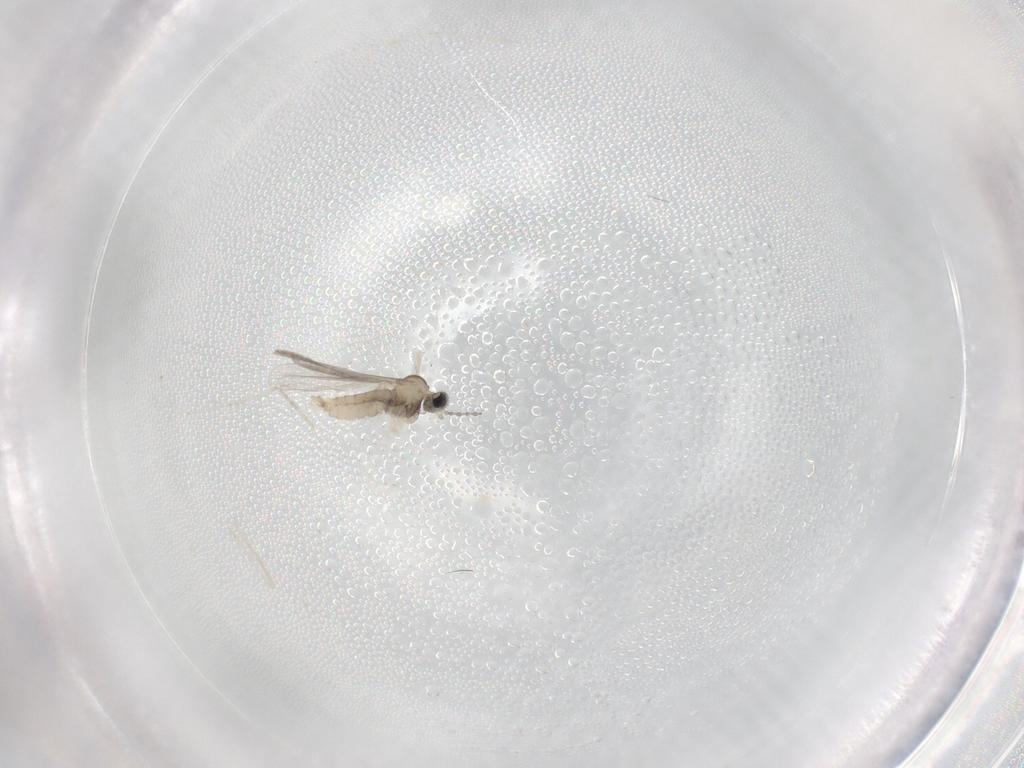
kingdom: Animalia
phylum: Arthropoda
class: Insecta
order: Diptera
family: Cecidomyiidae
